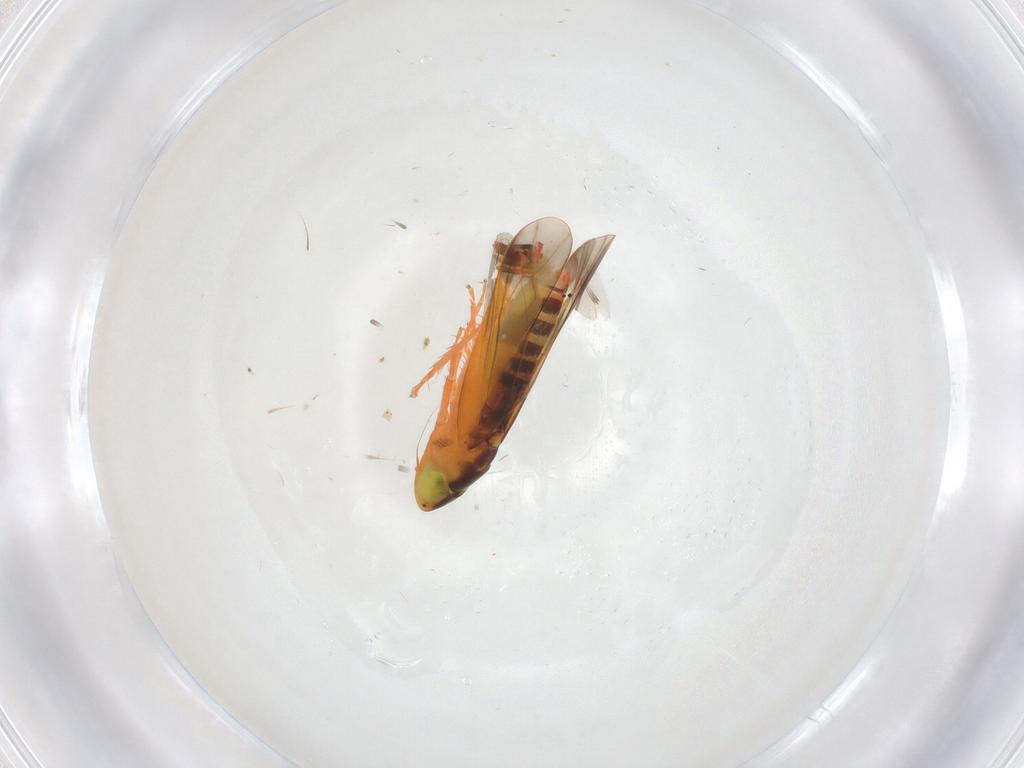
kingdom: Animalia
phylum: Arthropoda
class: Insecta
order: Hemiptera
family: Cicadellidae
